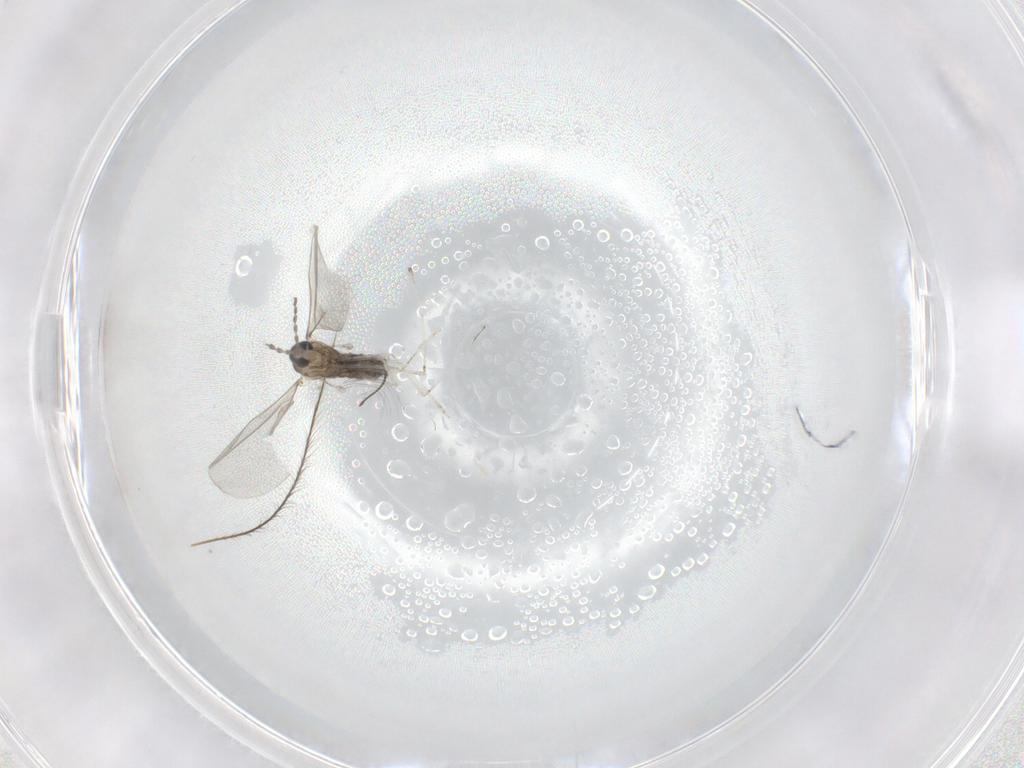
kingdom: Animalia
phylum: Arthropoda
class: Insecta
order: Diptera
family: Cecidomyiidae
